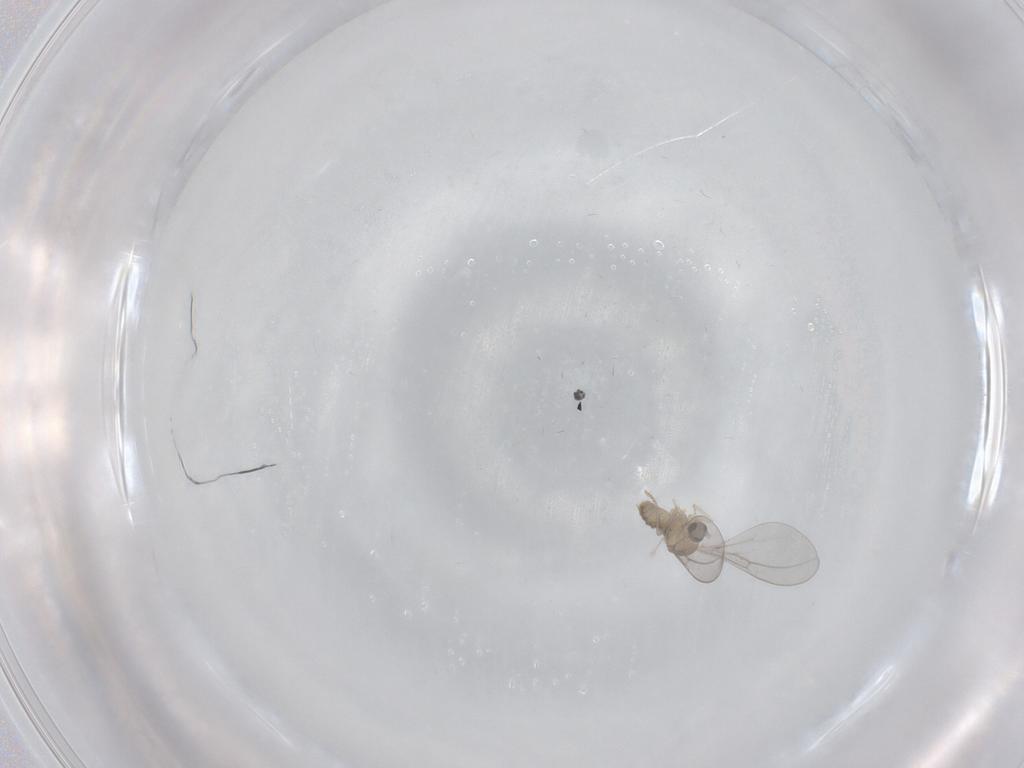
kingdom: Animalia
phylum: Arthropoda
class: Insecta
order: Diptera
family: Cecidomyiidae
